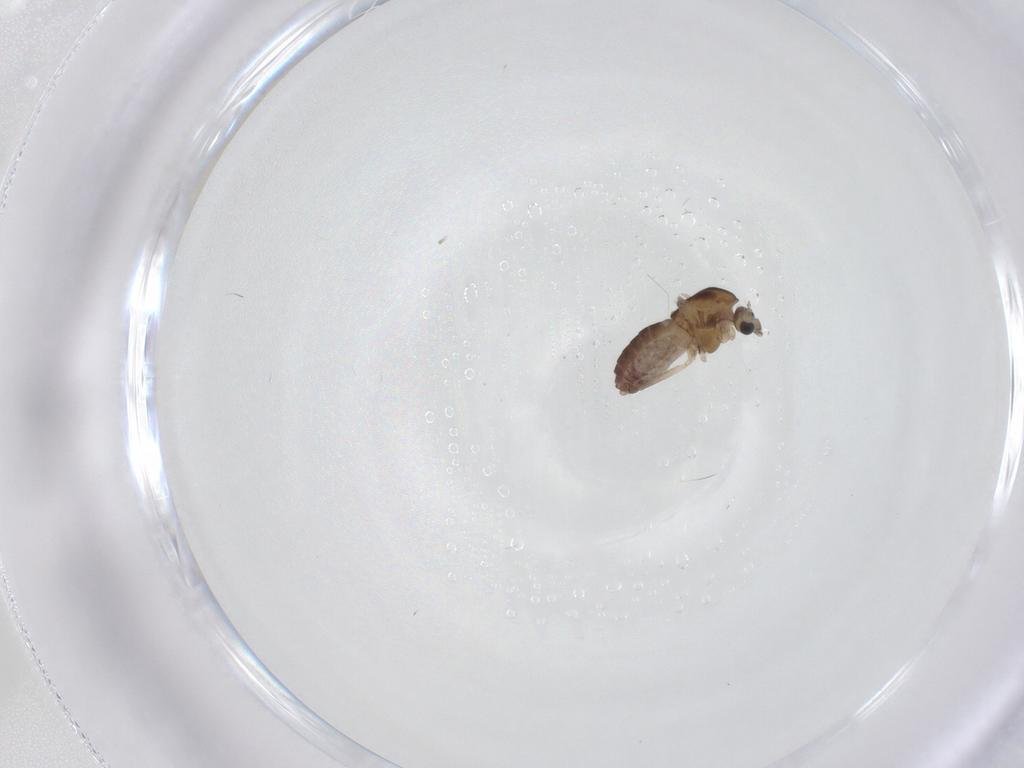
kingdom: Animalia
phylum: Arthropoda
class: Insecta
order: Diptera
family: Chironomidae
